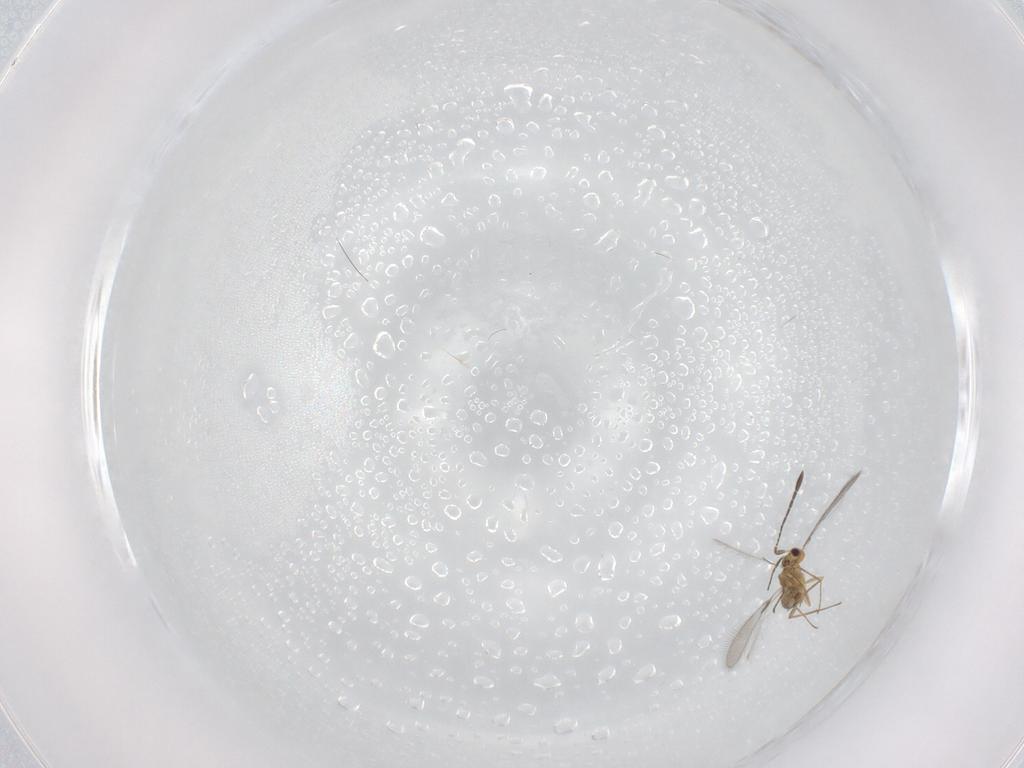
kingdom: Animalia
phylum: Arthropoda
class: Insecta
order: Hymenoptera
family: Mymaridae
